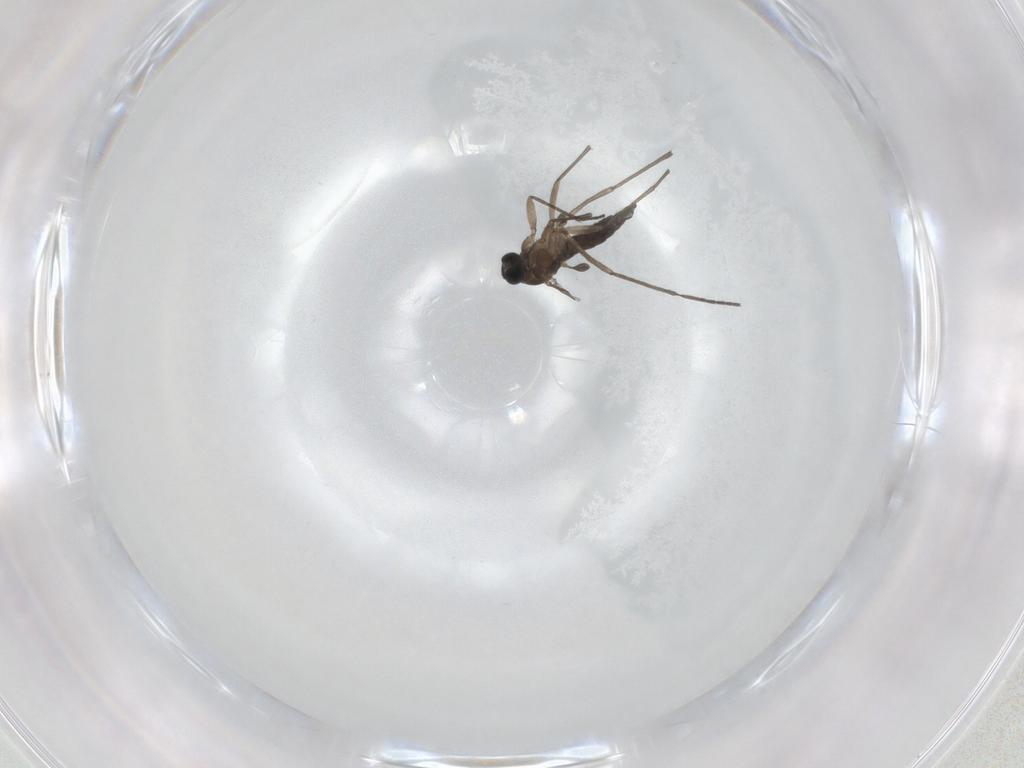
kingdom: Animalia
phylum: Arthropoda
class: Insecta
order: Diptera
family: Sciaridae
